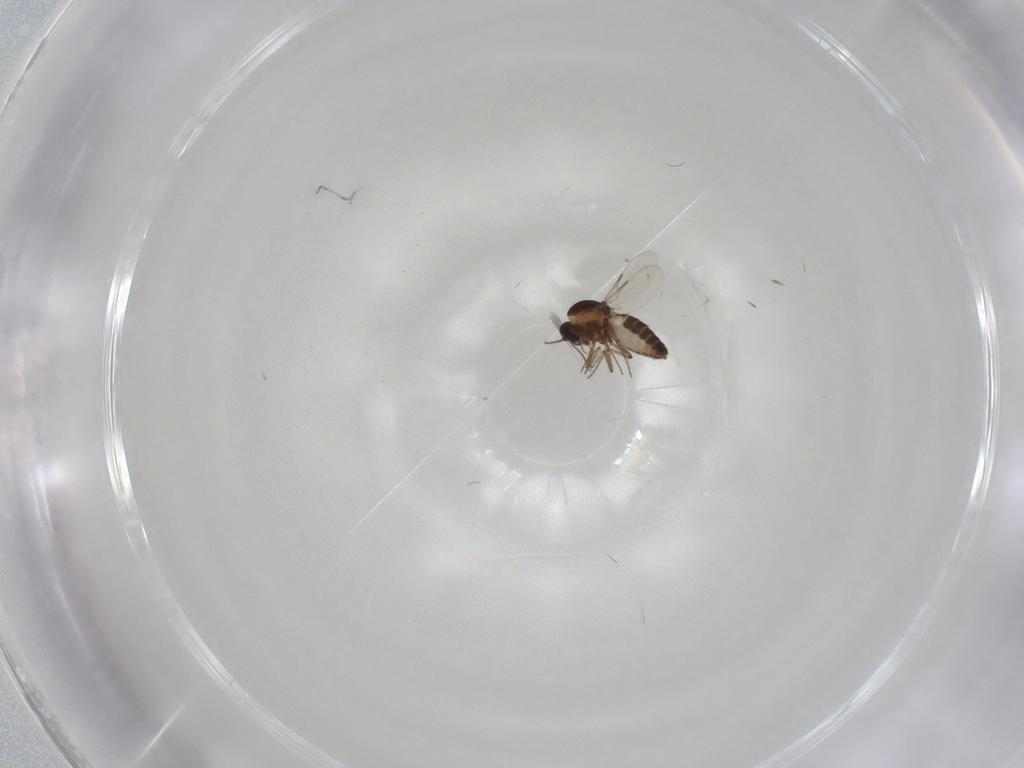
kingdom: Animalia
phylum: Arthropoda
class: Insecta
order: Diptera
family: Ceratopogonidae
